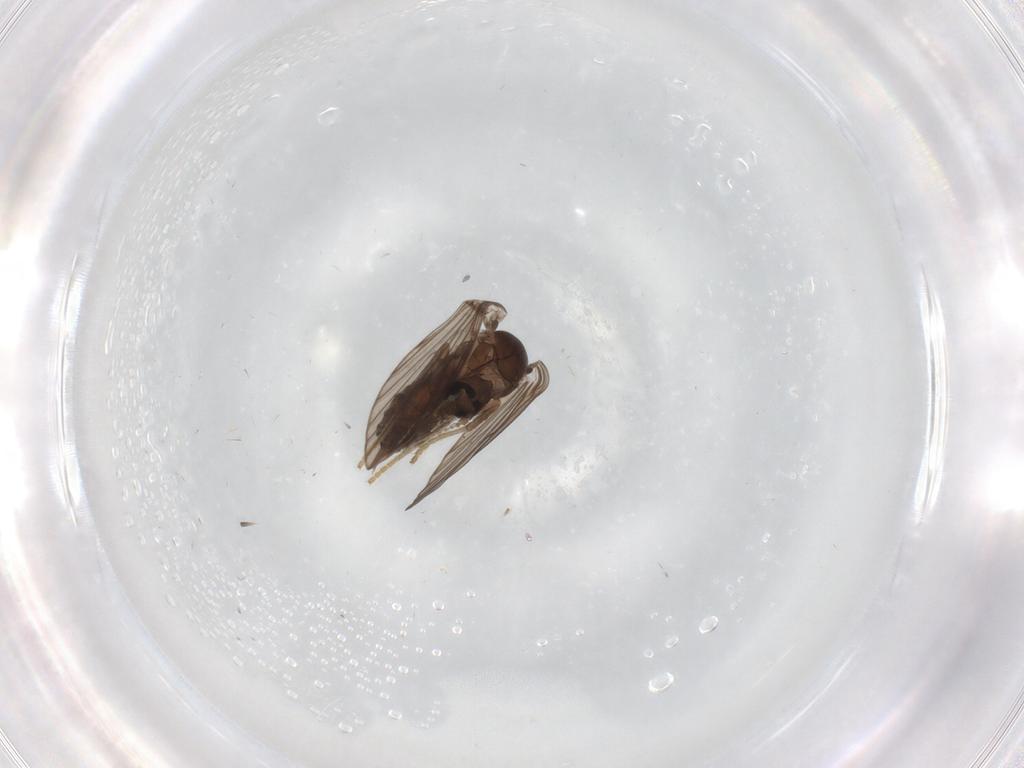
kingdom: Animalia
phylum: Arthropoda
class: Insecta
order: Diptera
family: Psychodidae
